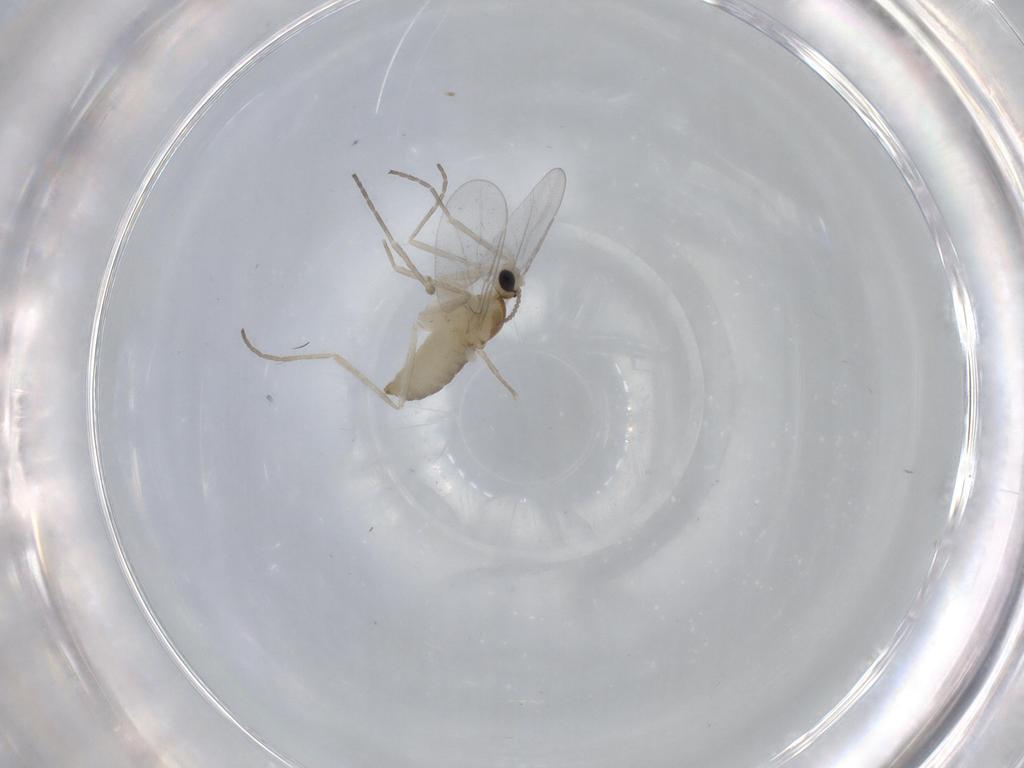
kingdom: Animalia
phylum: Arthropoda
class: Insecta
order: Diptera
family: Cecidomyiidae
